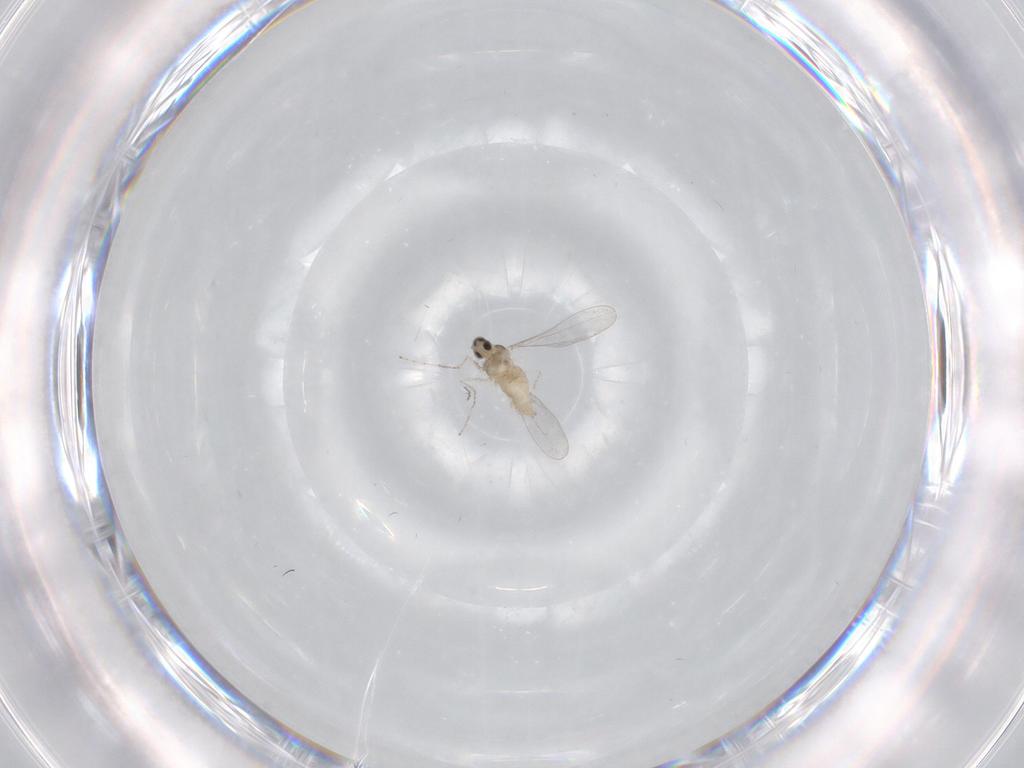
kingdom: Animalia
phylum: Arthropoda
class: Insecta
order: Diptera
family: Cecidomyiidae
